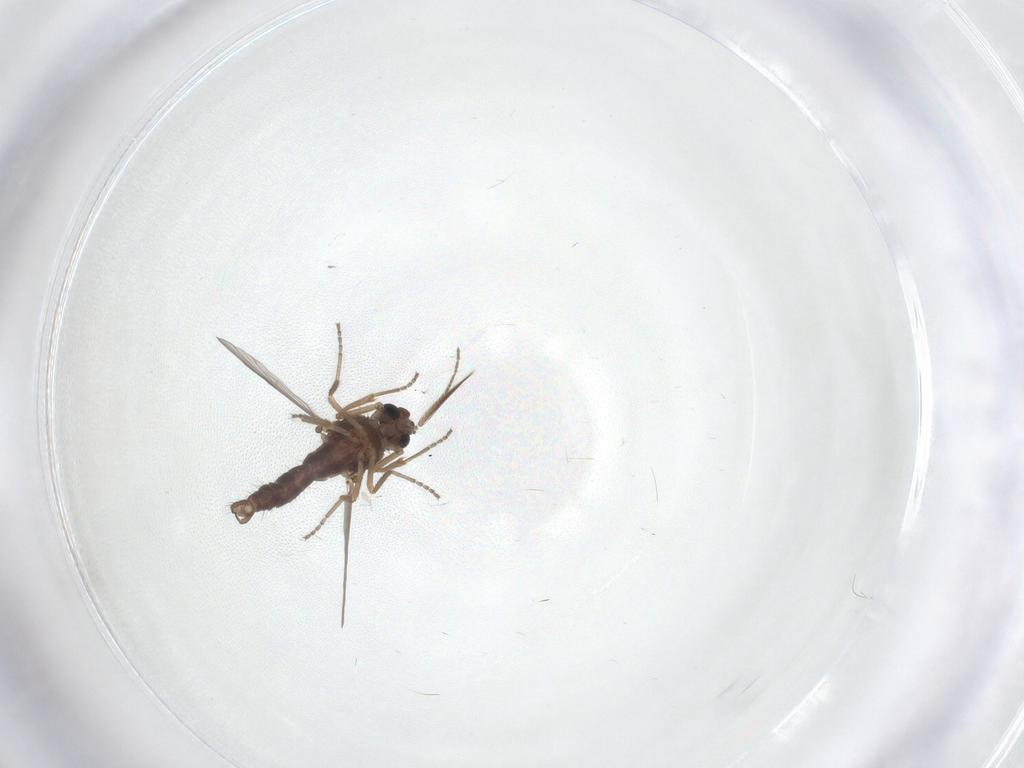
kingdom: Animalia
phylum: Arthropoda
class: Insecta
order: Diptera
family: Ceratopogonidae
